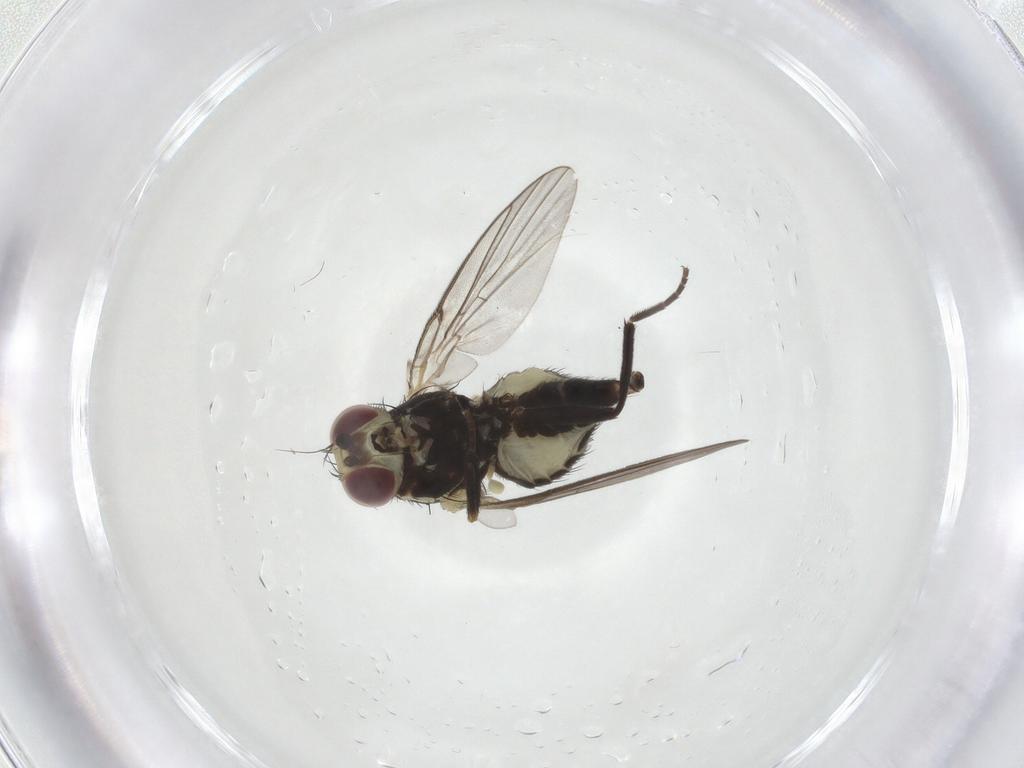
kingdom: Animalia
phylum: Arthropoda
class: Insecta
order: Diptera
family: Agromyzidae
